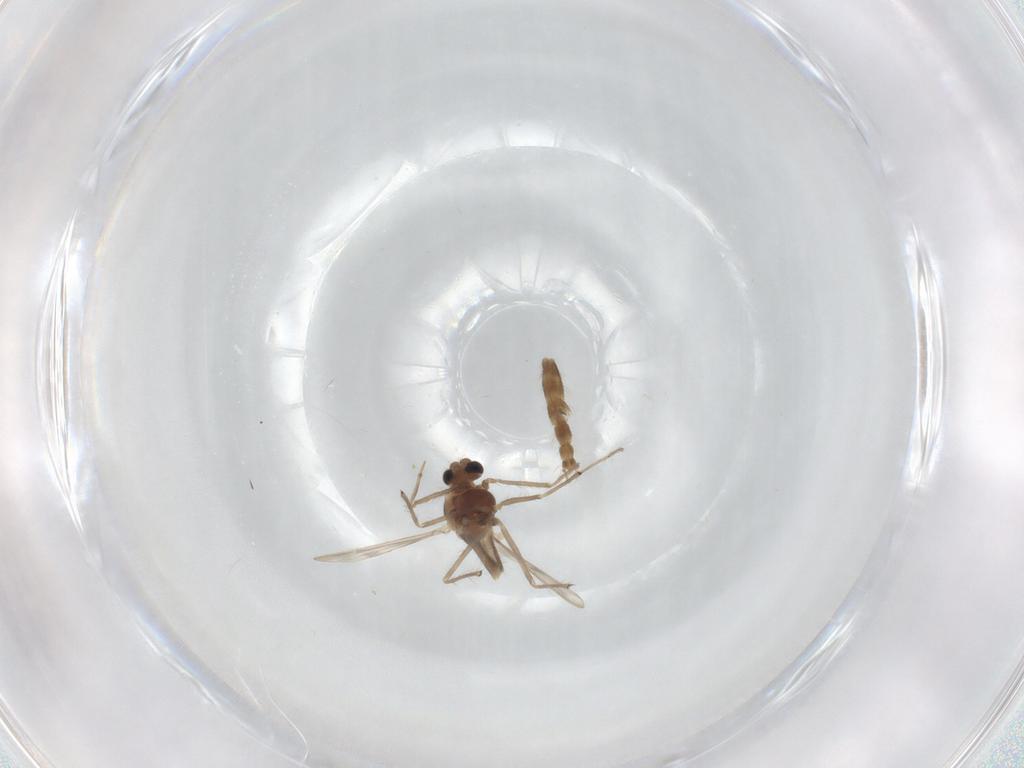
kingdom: Animalia
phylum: Arthropoda
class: Insecta
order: Diptera
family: Chironomidae
